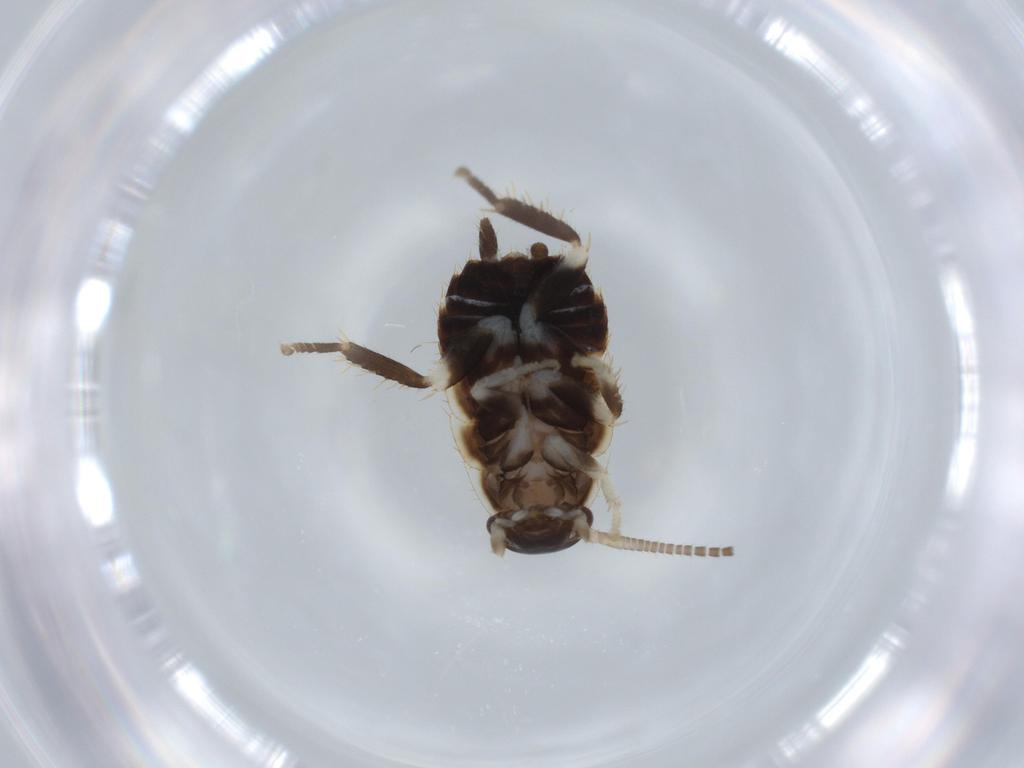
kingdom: Animalia
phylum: Arthropoda
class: Insecta
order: Blattodea
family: Ectobiidae
